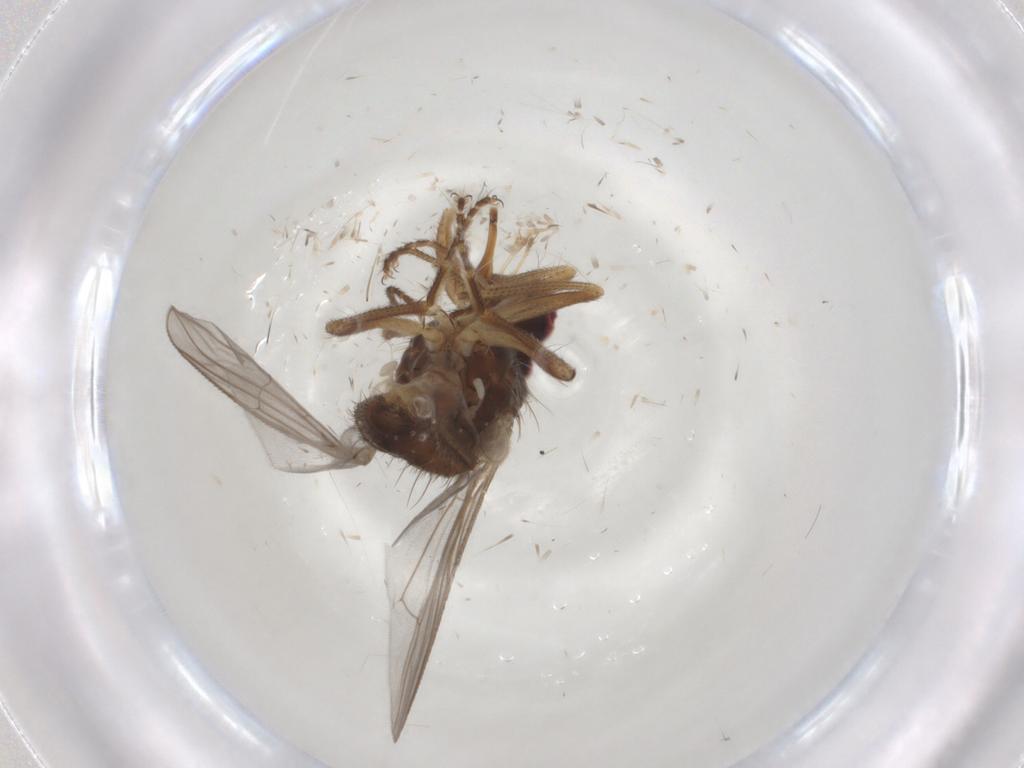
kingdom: Animalia
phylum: Arthropoda
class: Insecta
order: Diptera
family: Muscidae
